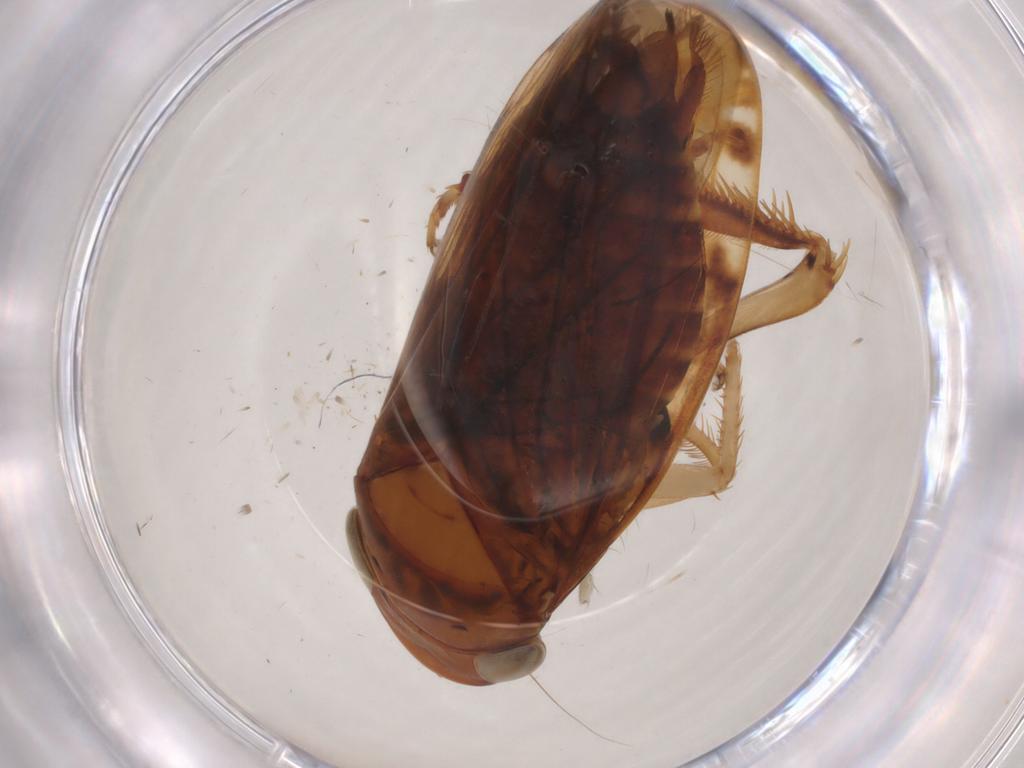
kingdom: Animalia
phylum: Arthropoda
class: Insecta
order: Hemiptera
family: Cicadellidae
